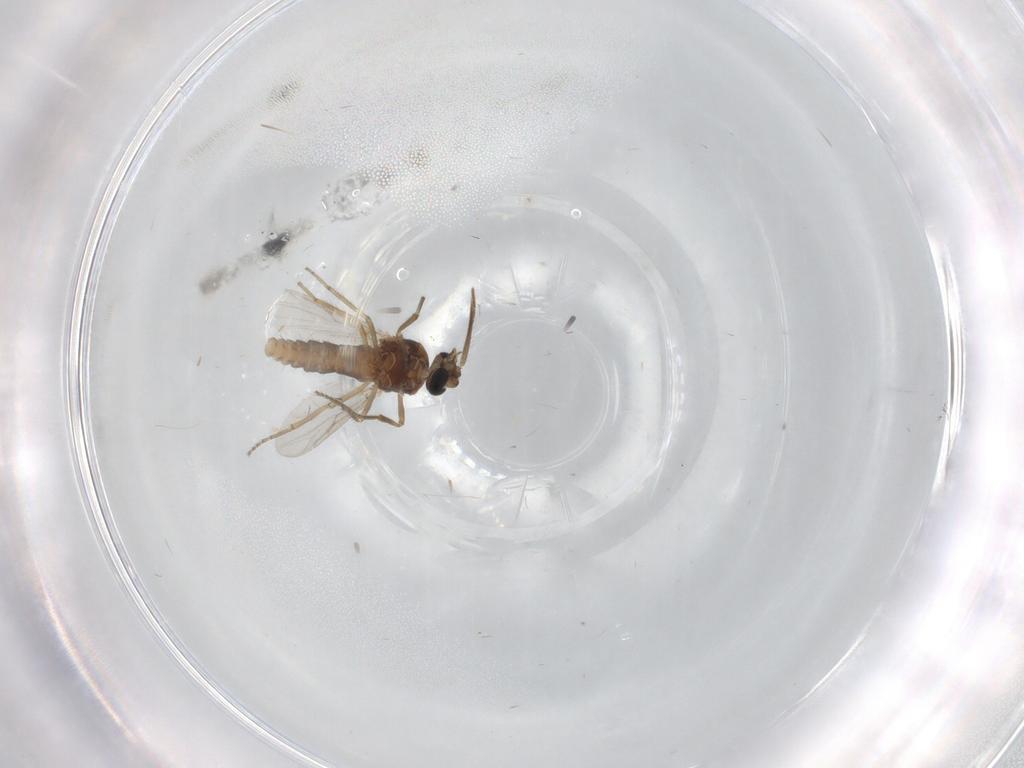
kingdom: Animalia
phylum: Arthropoda
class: Insecta
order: Diptera
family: Ceratopogonidae
